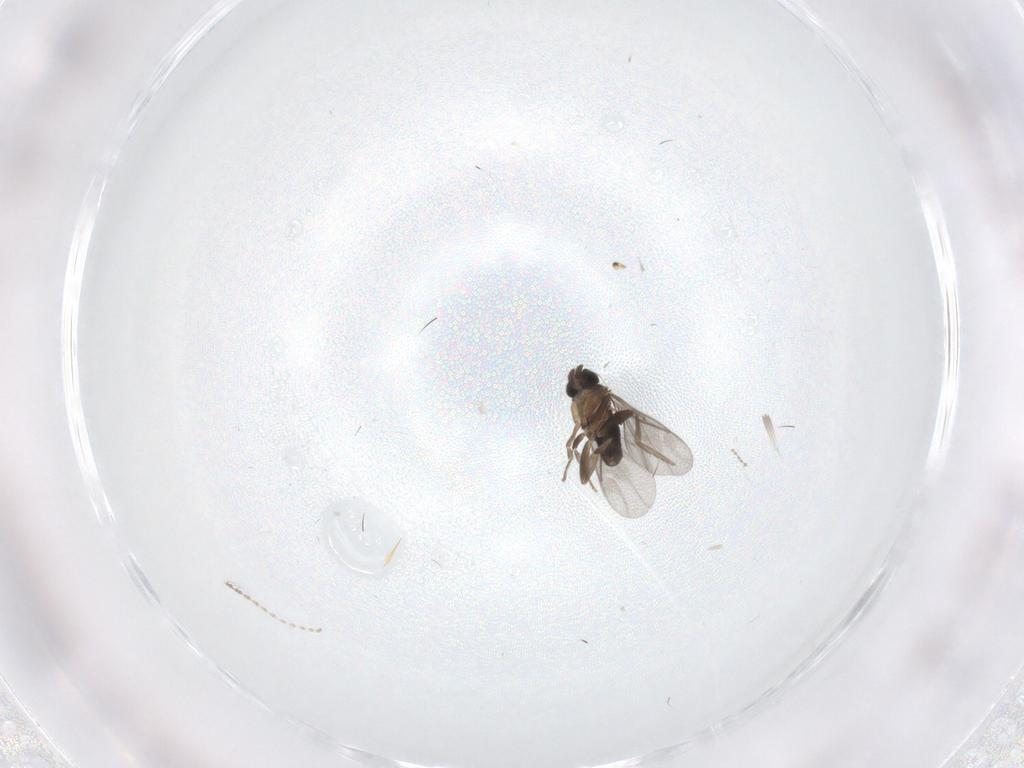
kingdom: Animalia
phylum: Arthropoda
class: Insecta
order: Diptera
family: Cecidomyiidae
